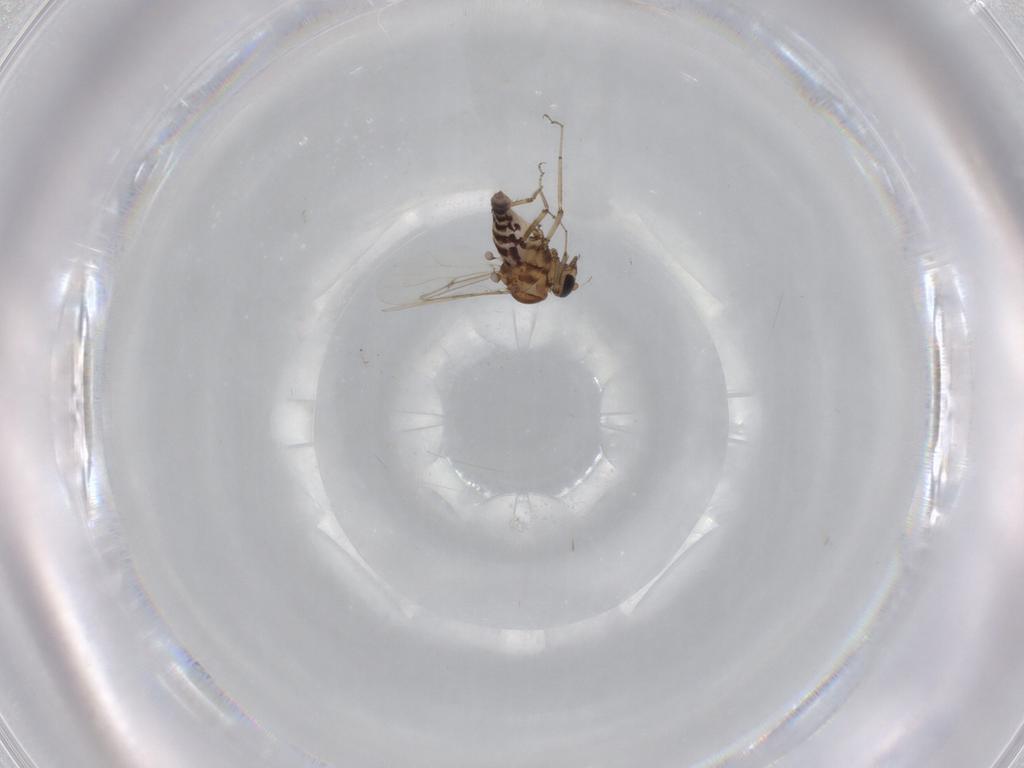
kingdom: Animalia
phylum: Arthropoda
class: Insecta
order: Diptera
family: Ceratopogonidae
